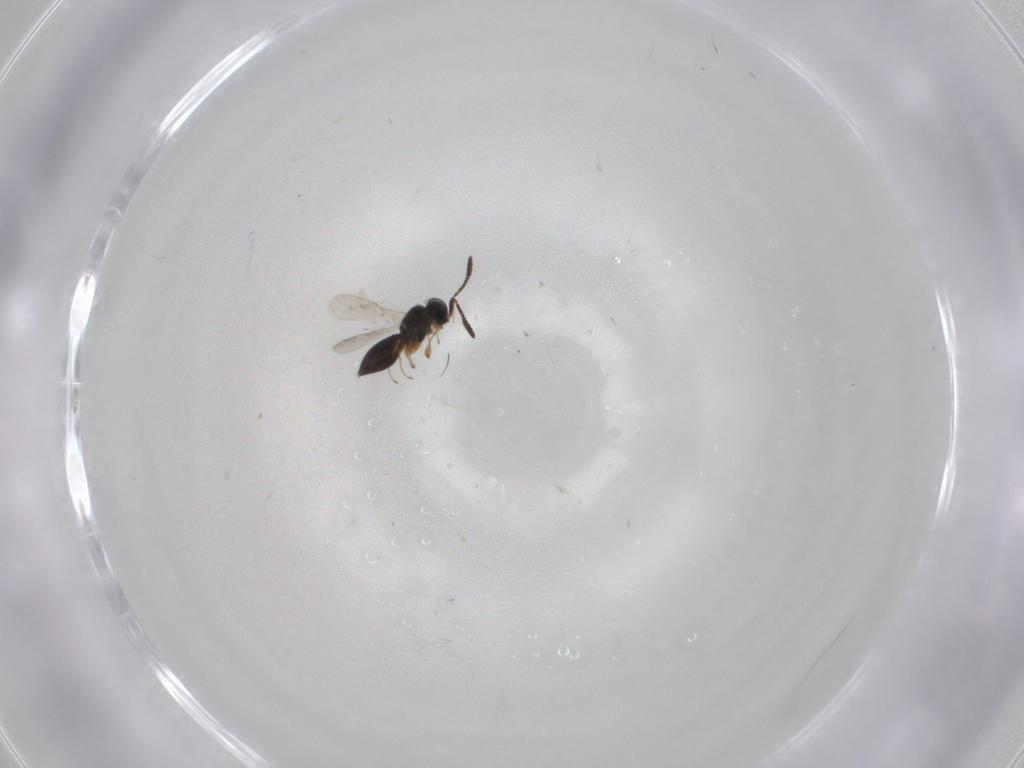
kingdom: Animalia
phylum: Arthropoda
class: Insecta
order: Hymenoptera
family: Scelionidae
